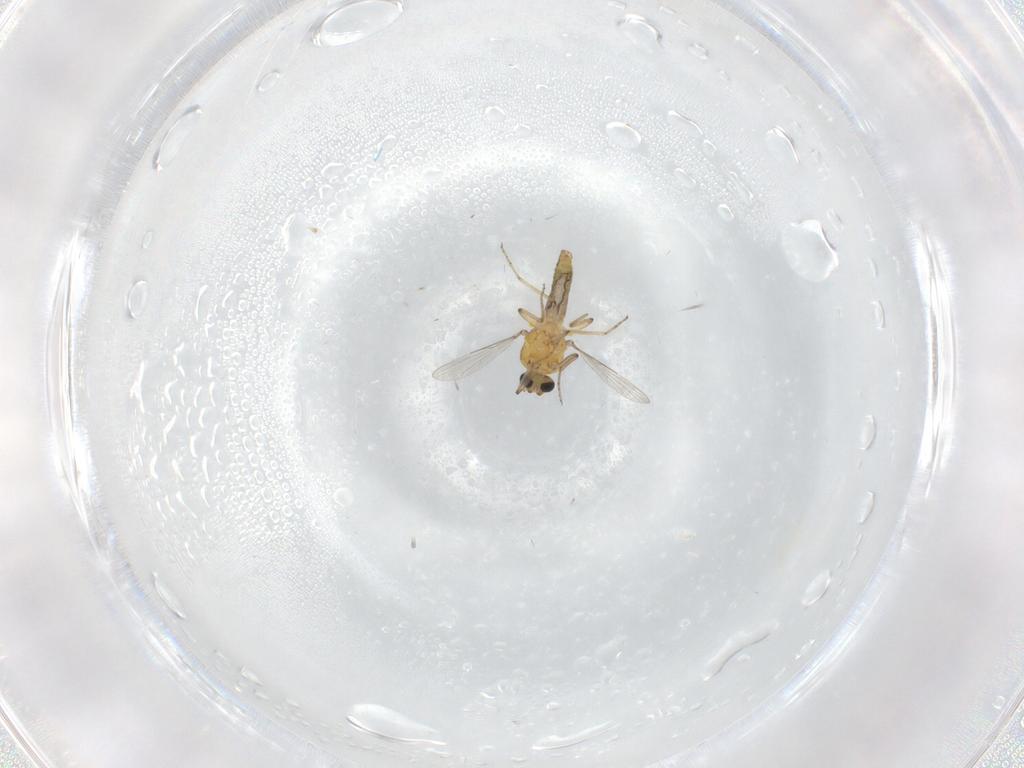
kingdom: Animalia
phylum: Arthropoda
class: Insecta
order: Diptera
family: Ceratopogonidae
